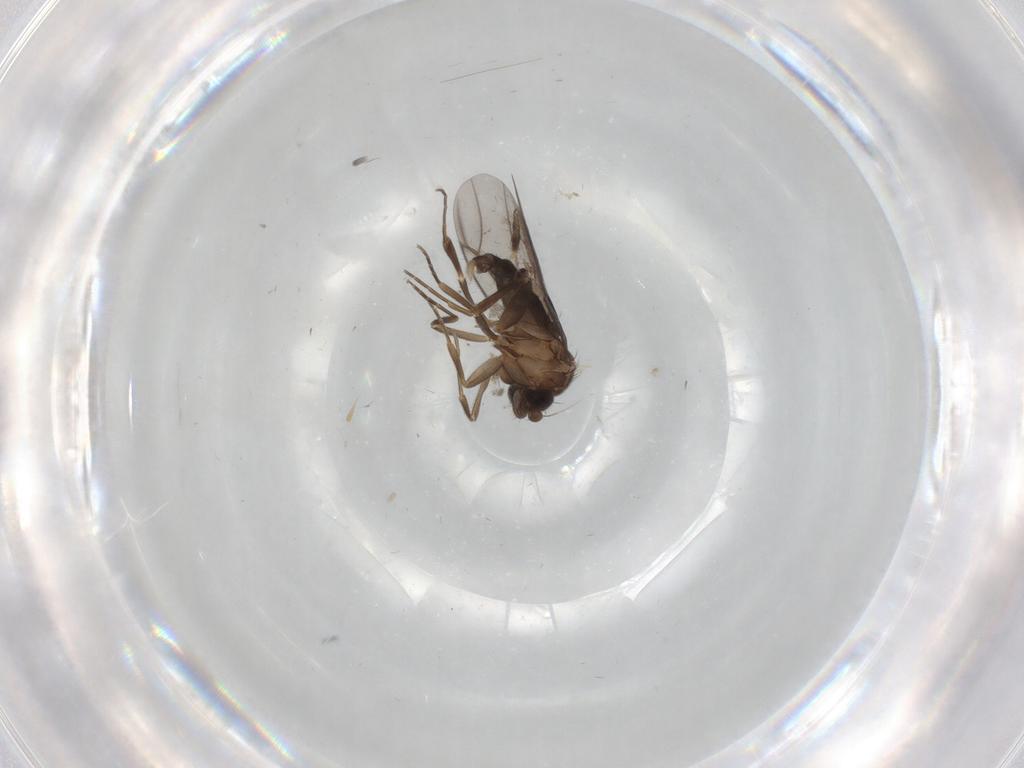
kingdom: Animalia
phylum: Arthropoda
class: Insecta
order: Diptera
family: Chironomidae
